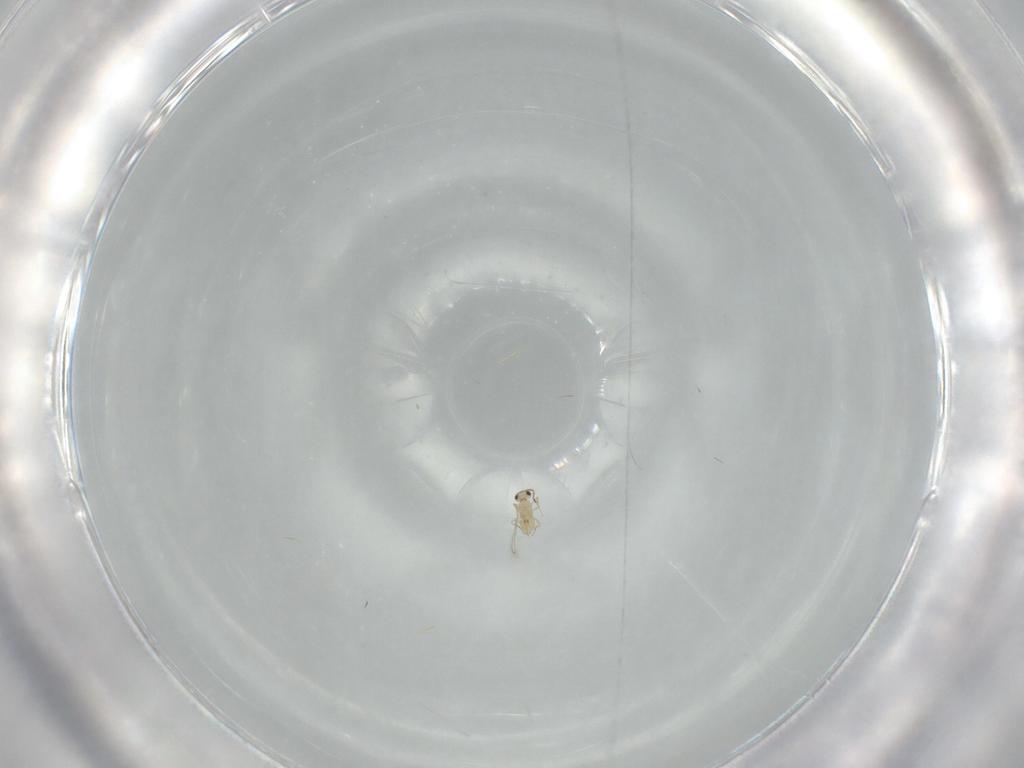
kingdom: Animalia
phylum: Arthropoda
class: Insecta
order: Hymenoptera
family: Mymaridae
